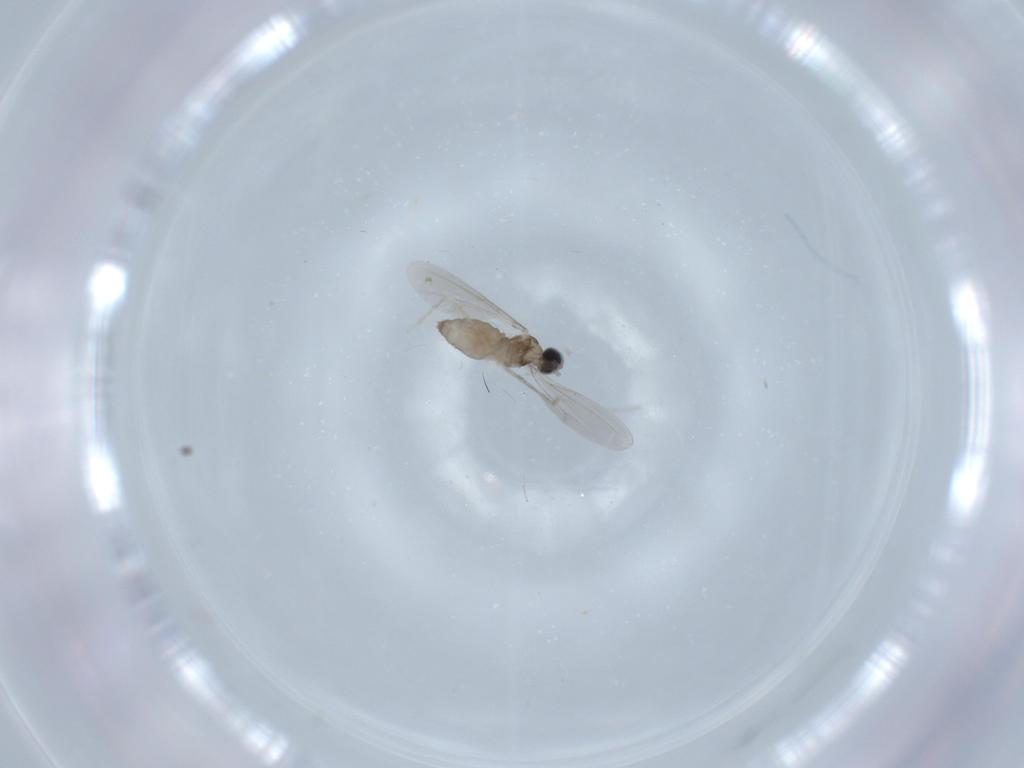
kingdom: Animalia
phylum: Arthropoda
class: Insecta
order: Diptera
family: Cecidomyiidae
